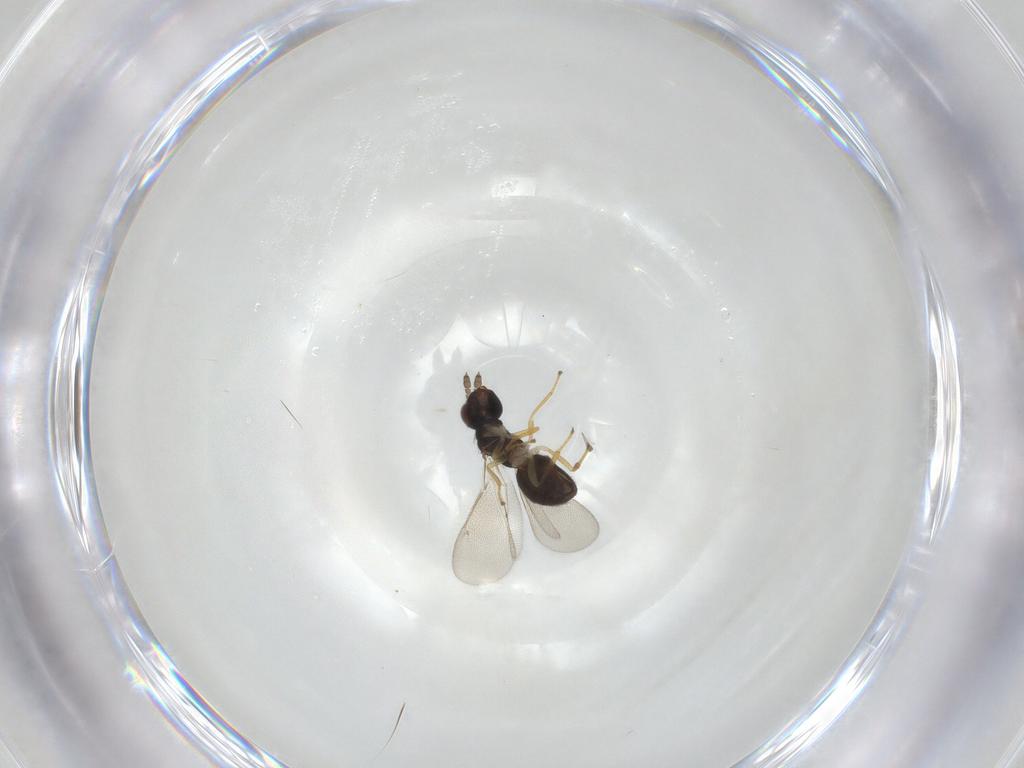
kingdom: Animalia
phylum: Arthropoda
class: Insecta
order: Hymenoptera
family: Eulophidae
